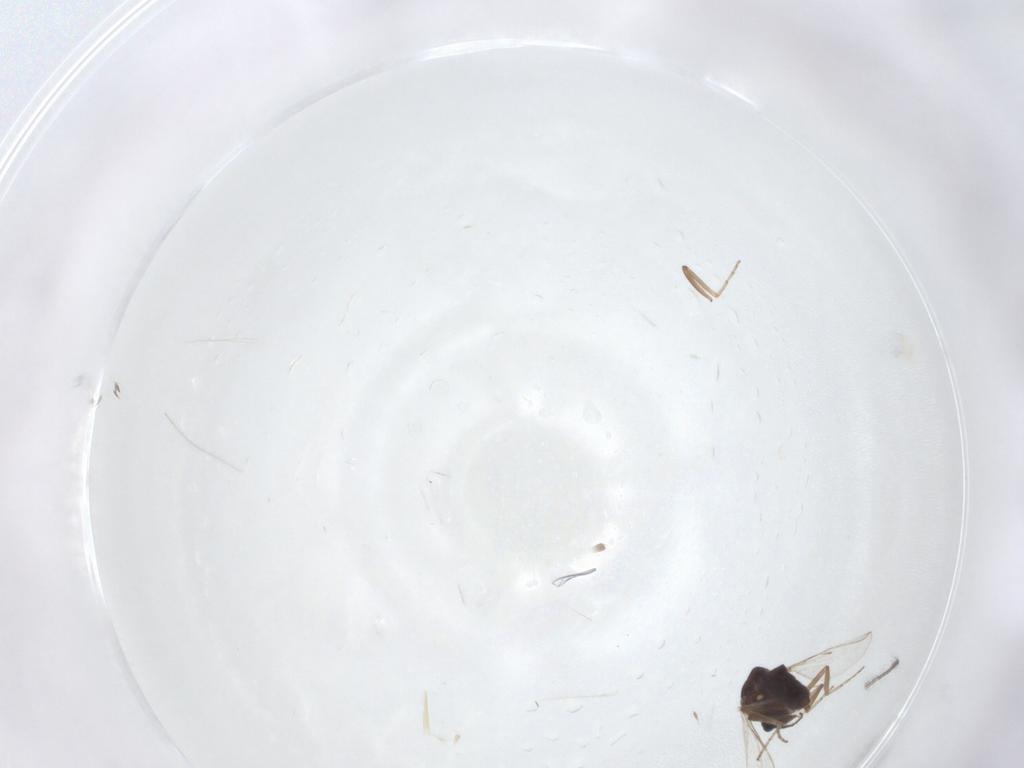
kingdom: Animalia
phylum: Arthropoda
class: Insecta
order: Diptera
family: Ceratopogonidae
